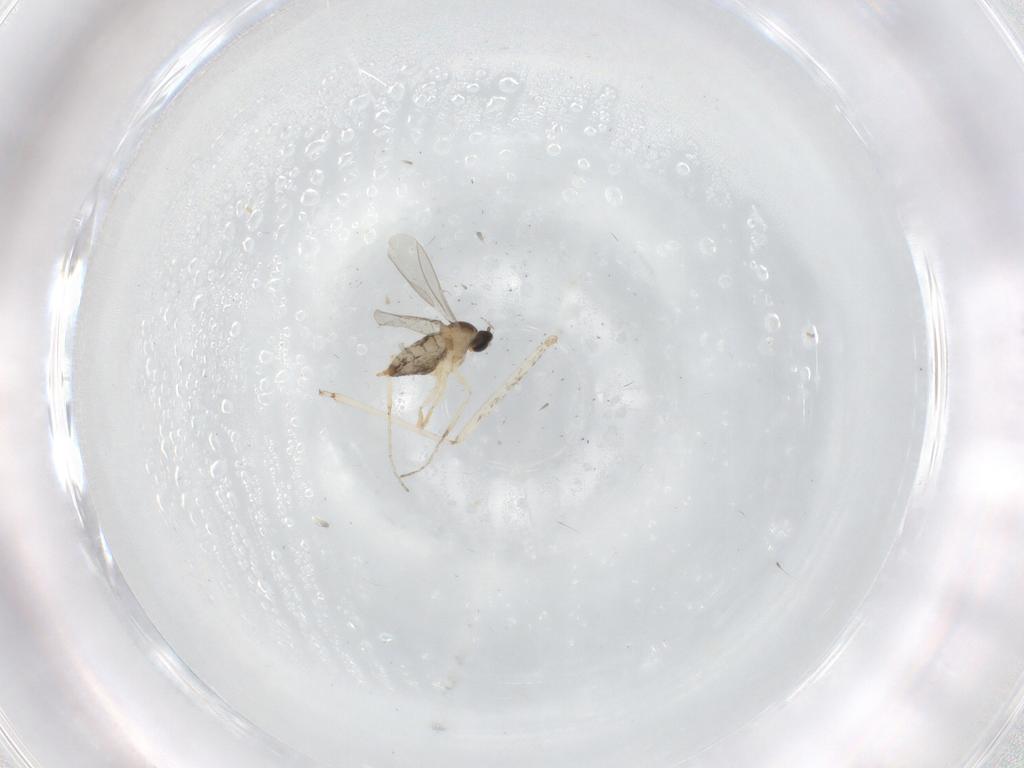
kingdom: Animalia
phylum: Arthropoda
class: Insecta
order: Diptera
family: Cecidomyiidae
